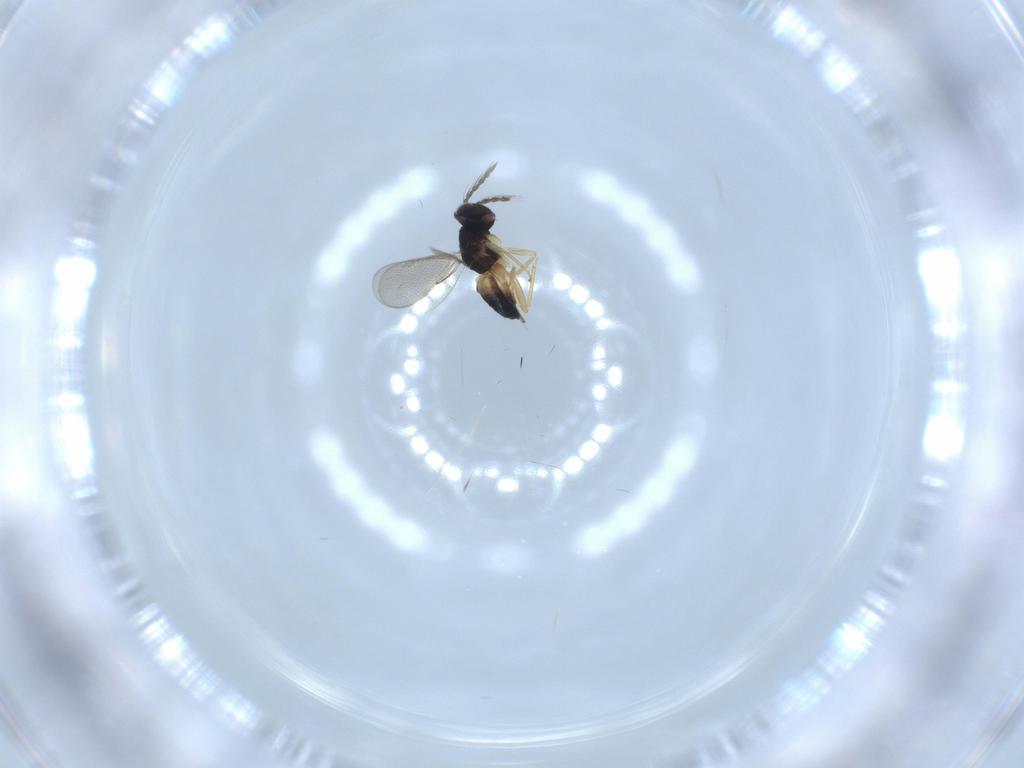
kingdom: Animalia
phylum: Arthropoda
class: Insecta
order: Hymenoptera
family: Eulophidae
